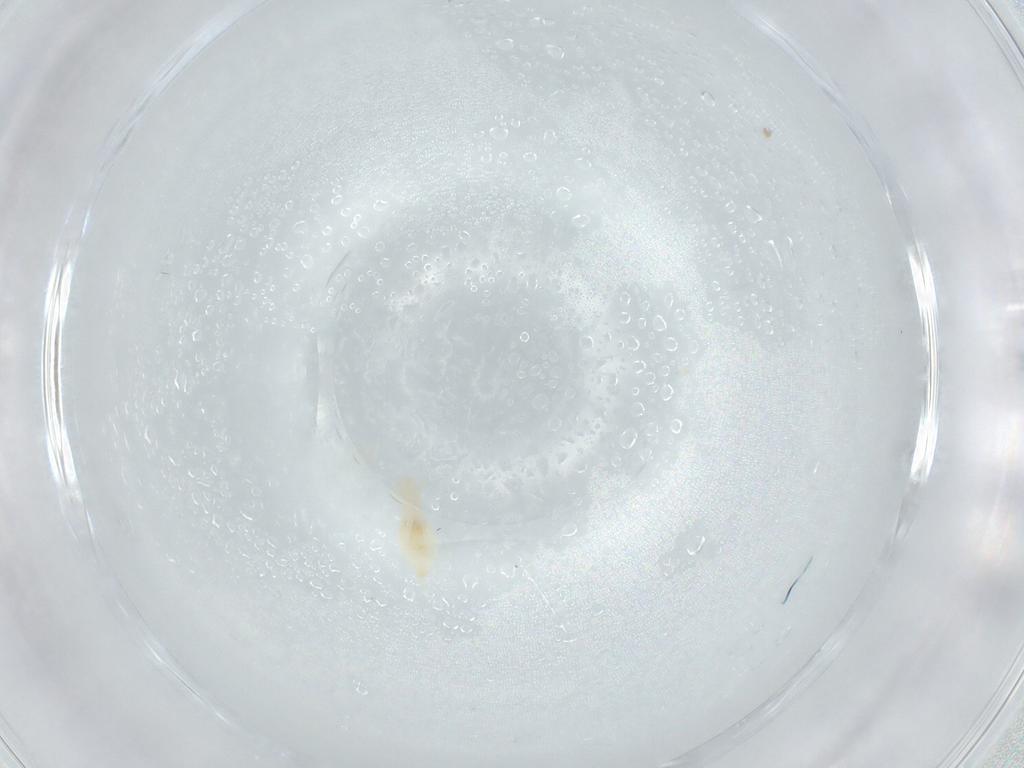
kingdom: Animalia
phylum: Arthropoda
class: Insecta
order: Diptera
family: Cecidomyiidae
